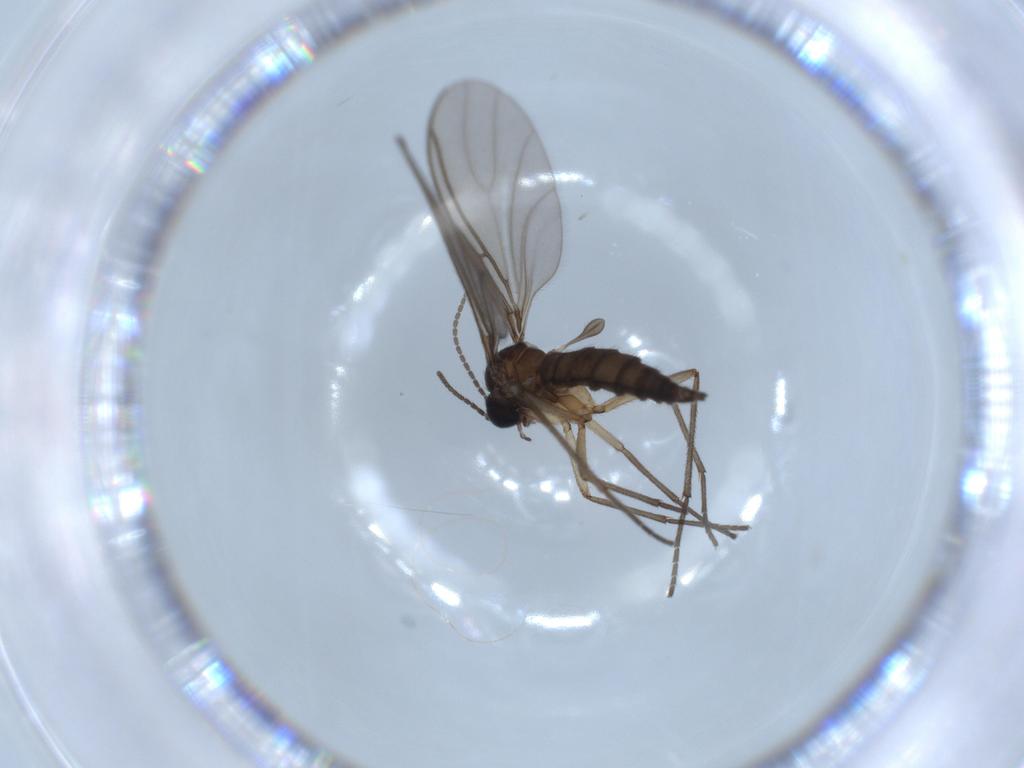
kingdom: Animalia
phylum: Arthropoda
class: Insecta
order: Diptera
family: Sciaridae
